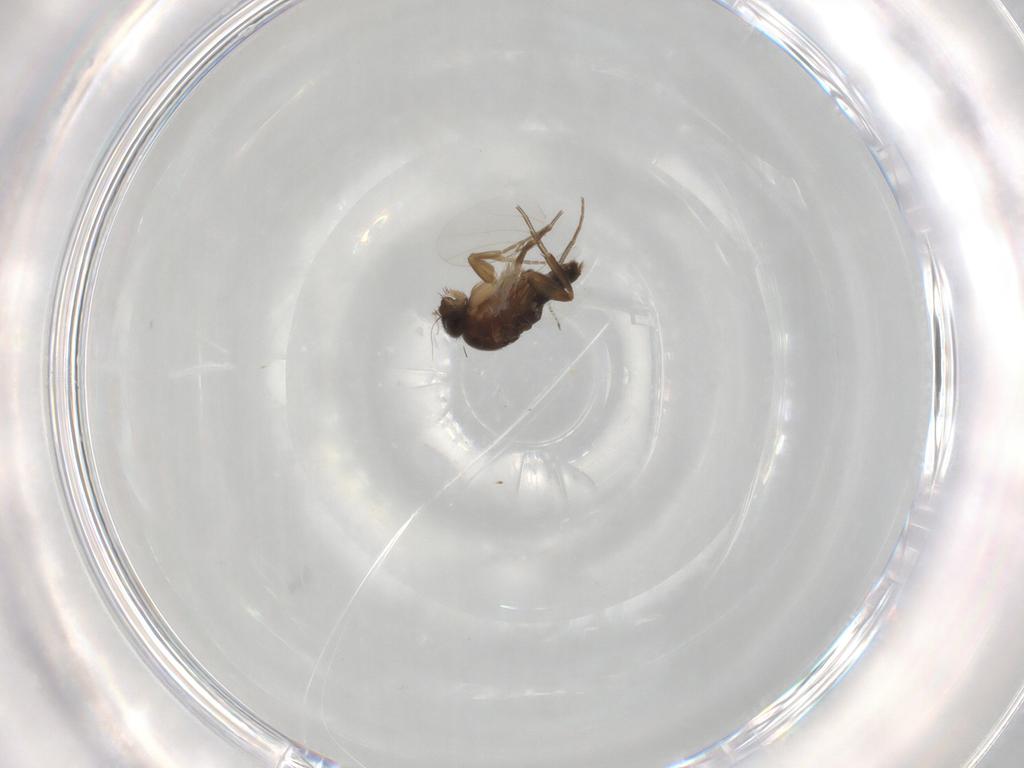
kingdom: Animalia
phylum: Arthropoda
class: Insecta
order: Diptera
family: Phoridae
